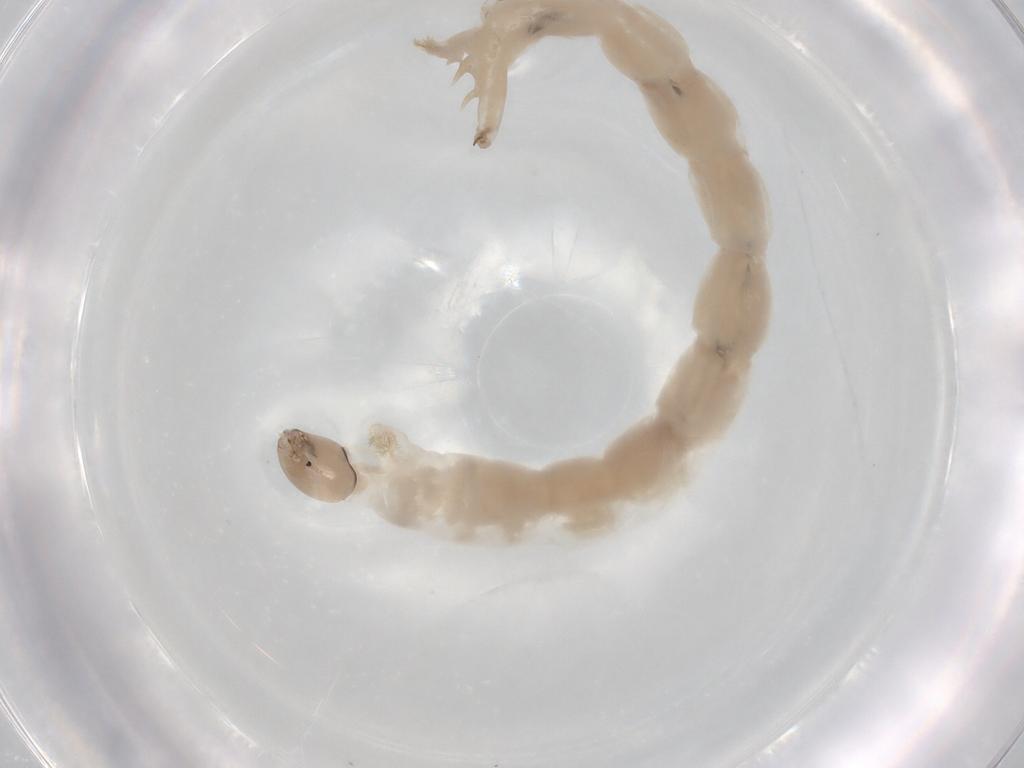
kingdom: Animalia
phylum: Arthropoda
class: Insecta
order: Diptera
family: Chironomidae
